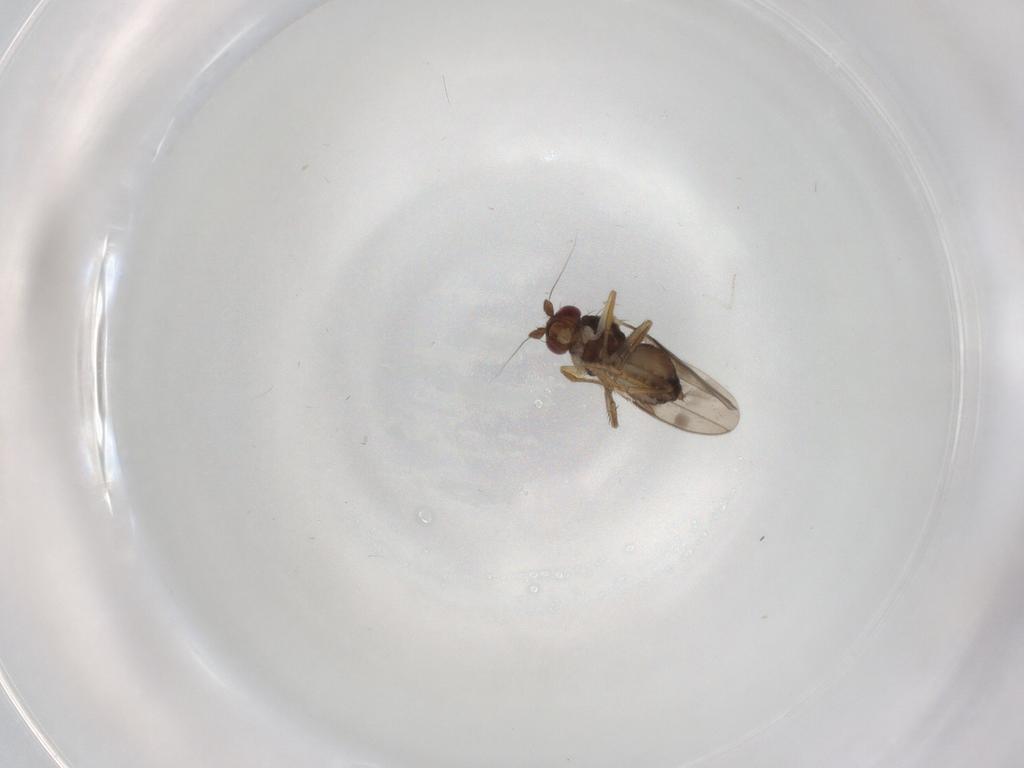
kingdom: Animalia
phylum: Arthropoda
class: Insecta
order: Diptera
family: Sphaeroceridae
